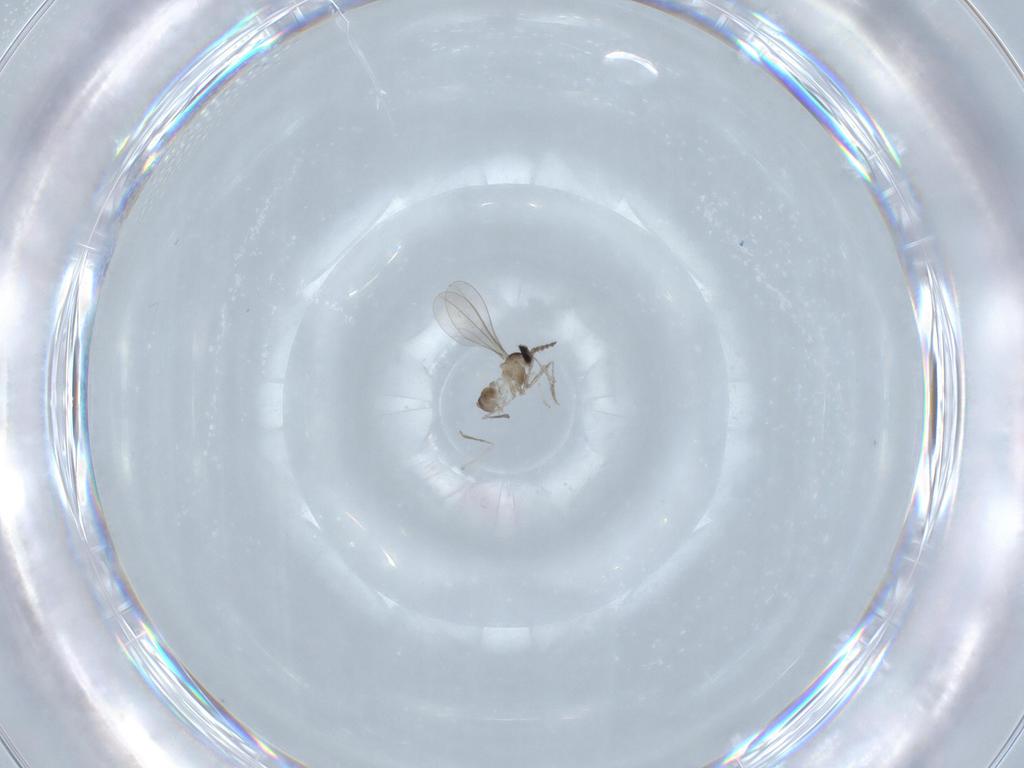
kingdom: Animalia
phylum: Arthropoda
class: Insecta
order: Diptera
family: Cecidomyiidae
